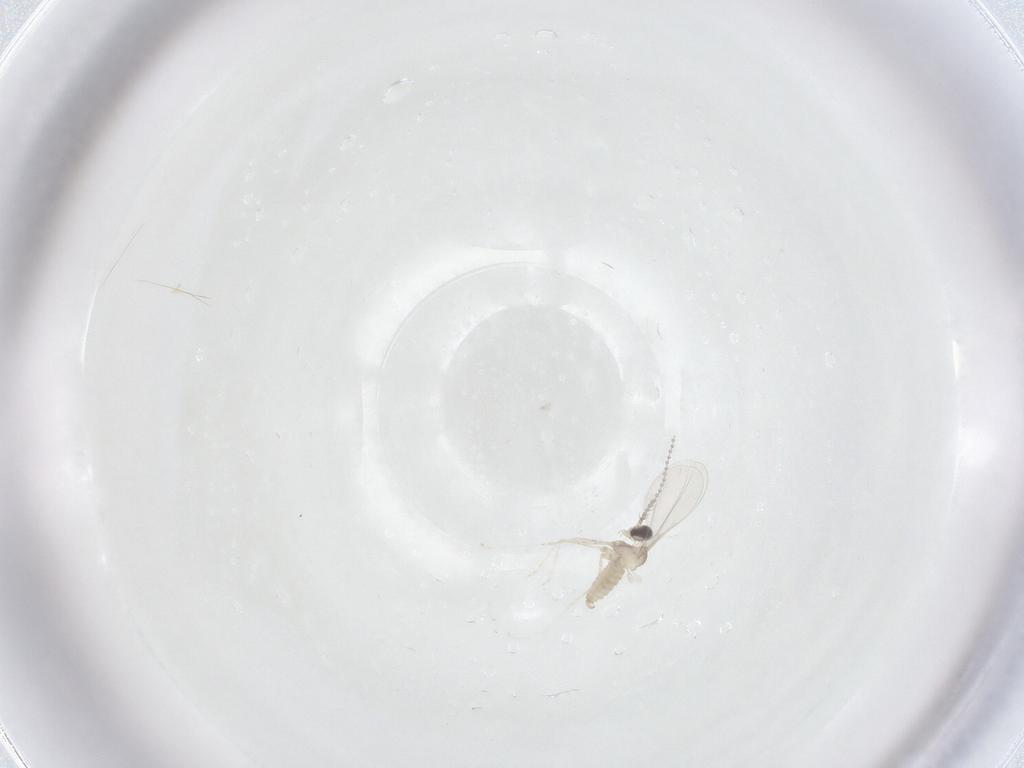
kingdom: Animalia
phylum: Arthropoda
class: Insecta
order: Diptera
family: Cecidomyiidae
